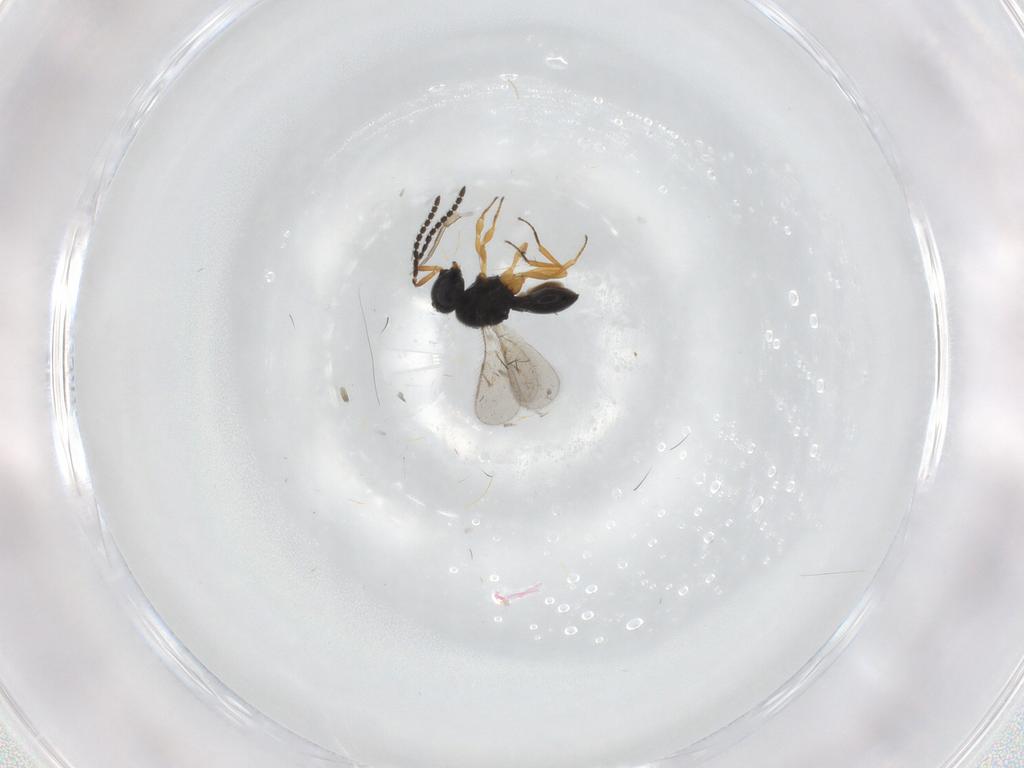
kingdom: Animalia
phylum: Arthropoda
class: Insecta
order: Hymenoptera
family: Scelionidae
